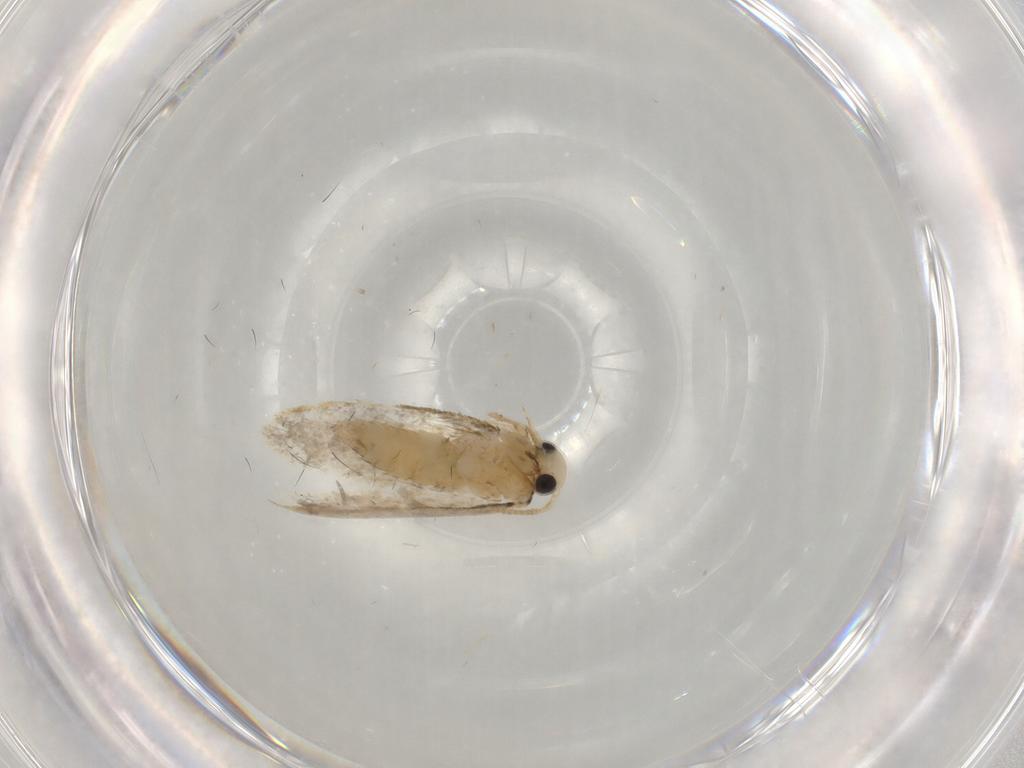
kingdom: Animalia
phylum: Arthropoda
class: Insecta
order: Lepidoptera
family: Psychidae
